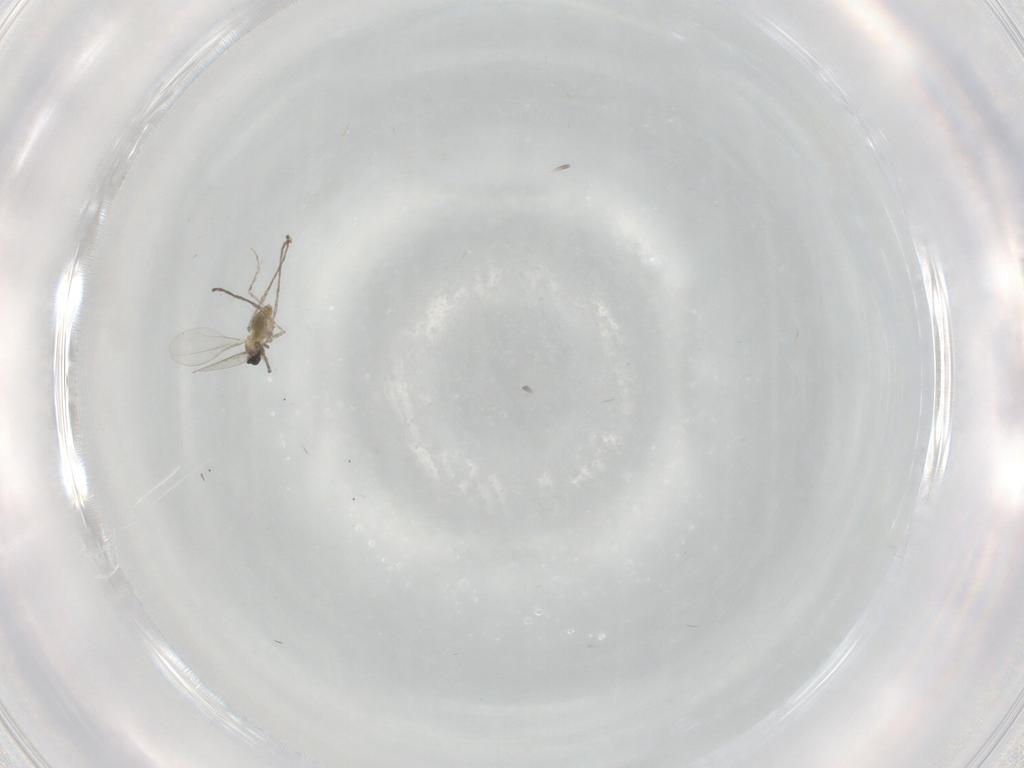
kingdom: Animalia
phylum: Arthropoda
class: Insecta
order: Diptera
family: Cecidomyiidae
